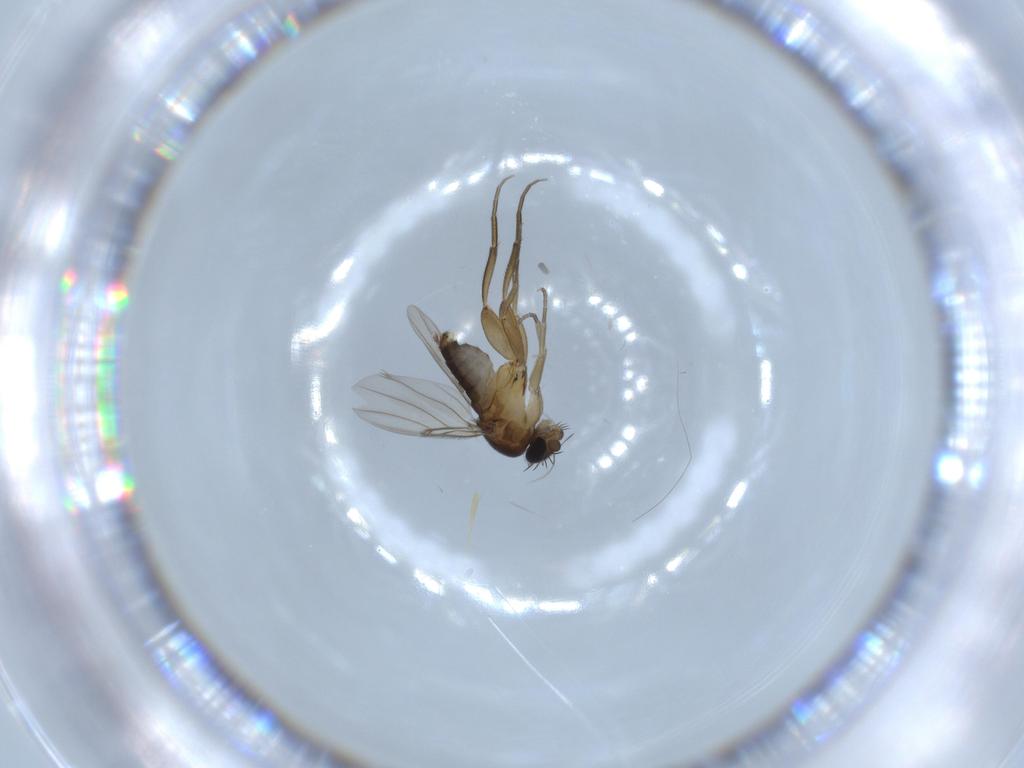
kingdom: Animalia
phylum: Arthropoda
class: Insecta
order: Diptera
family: Phoridae
